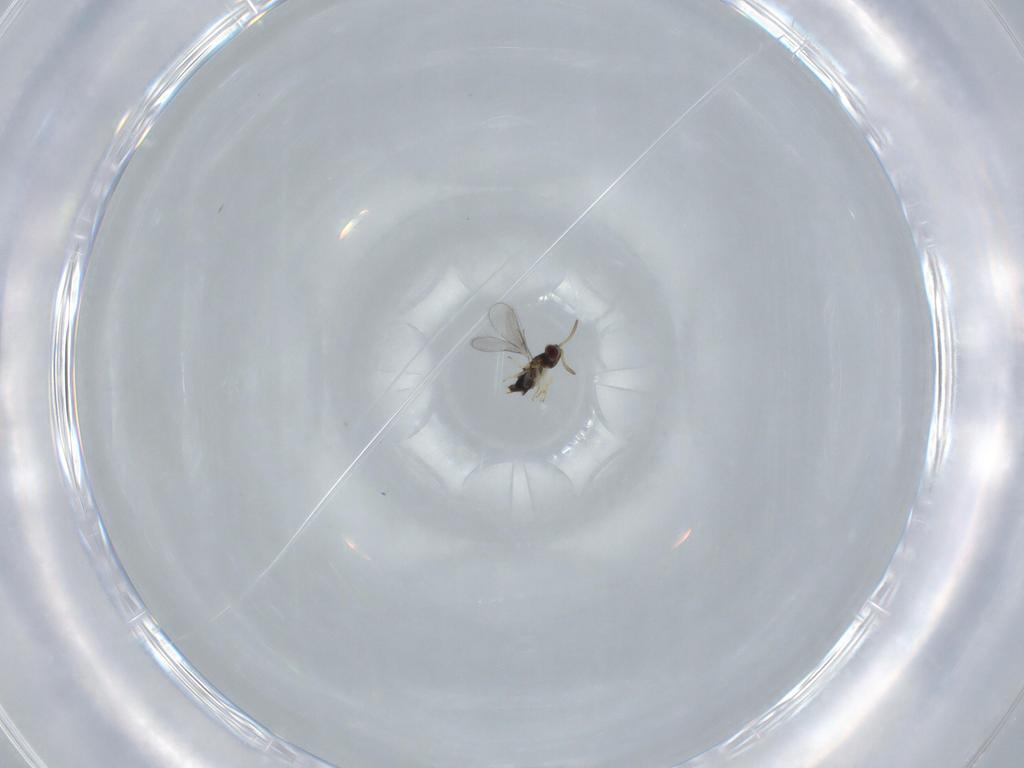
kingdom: Animalia
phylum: Arthropoda
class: Insecta
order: Hymenoptera
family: Aphelinidae
